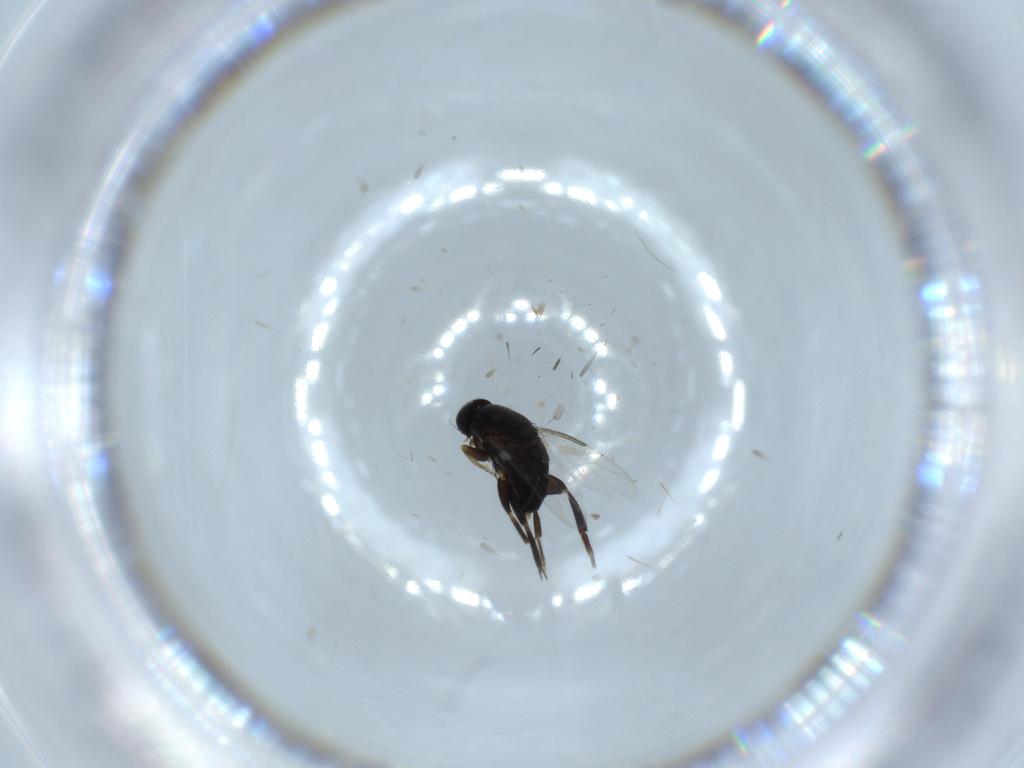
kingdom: Animalia
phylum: Arthropoda
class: Insecta
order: Diptera
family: Phoridae
